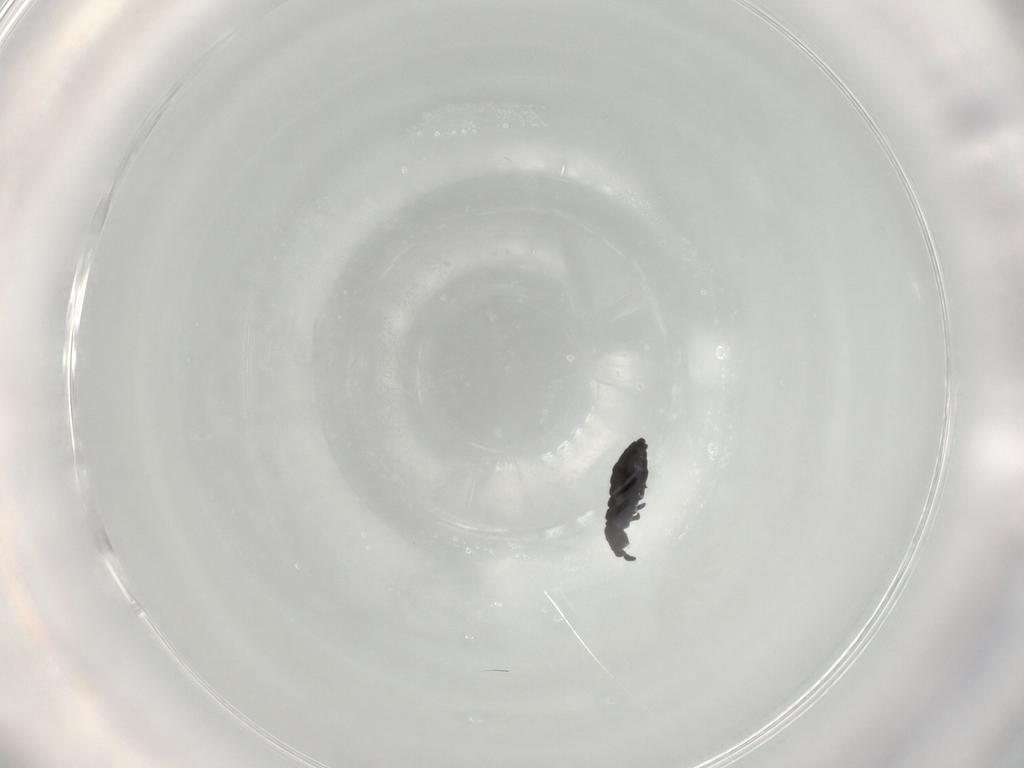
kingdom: Animalia
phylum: Arthropoda
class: Collembola
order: Poduromorpha
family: Hypogastruridae
